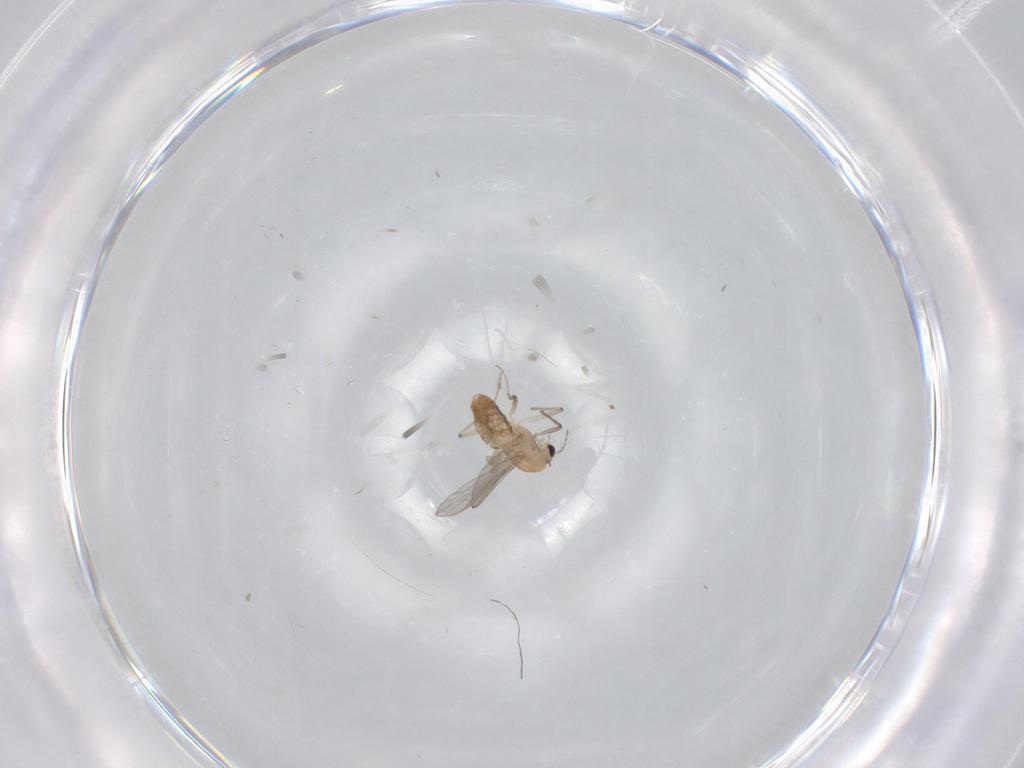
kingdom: Animalia
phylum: Arthropoda
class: Insecta
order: Diptera
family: Chironomidae
